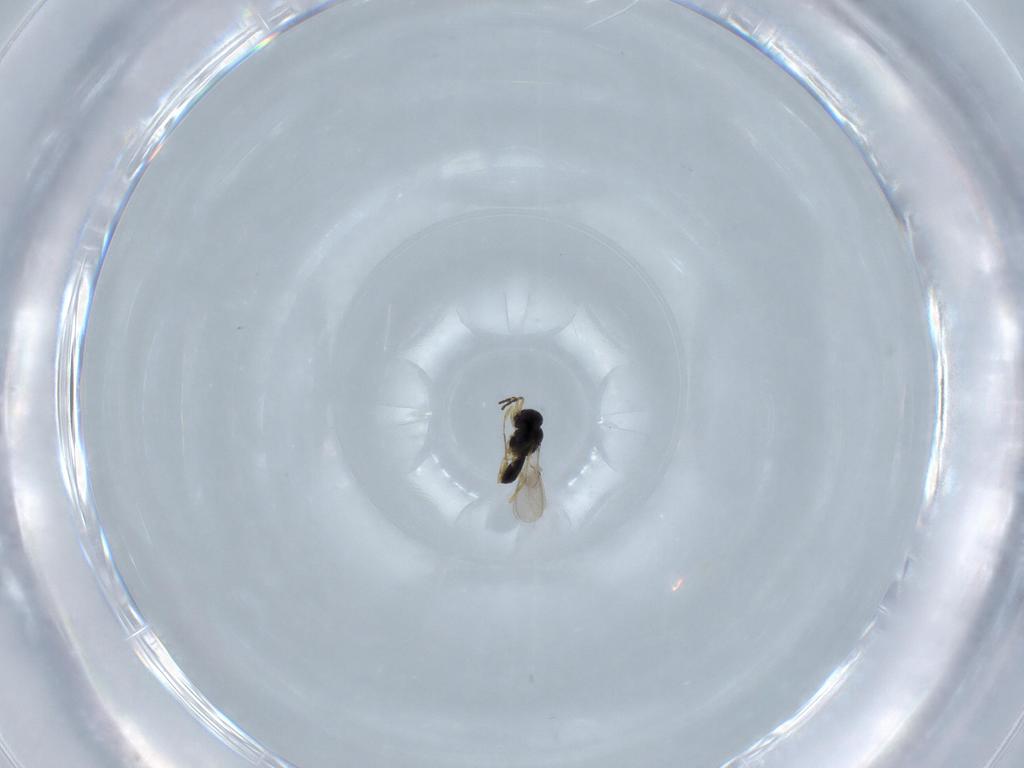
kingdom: Animalia
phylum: Arthropoda
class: Insecta
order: Hymenoptera
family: Scelionidae
